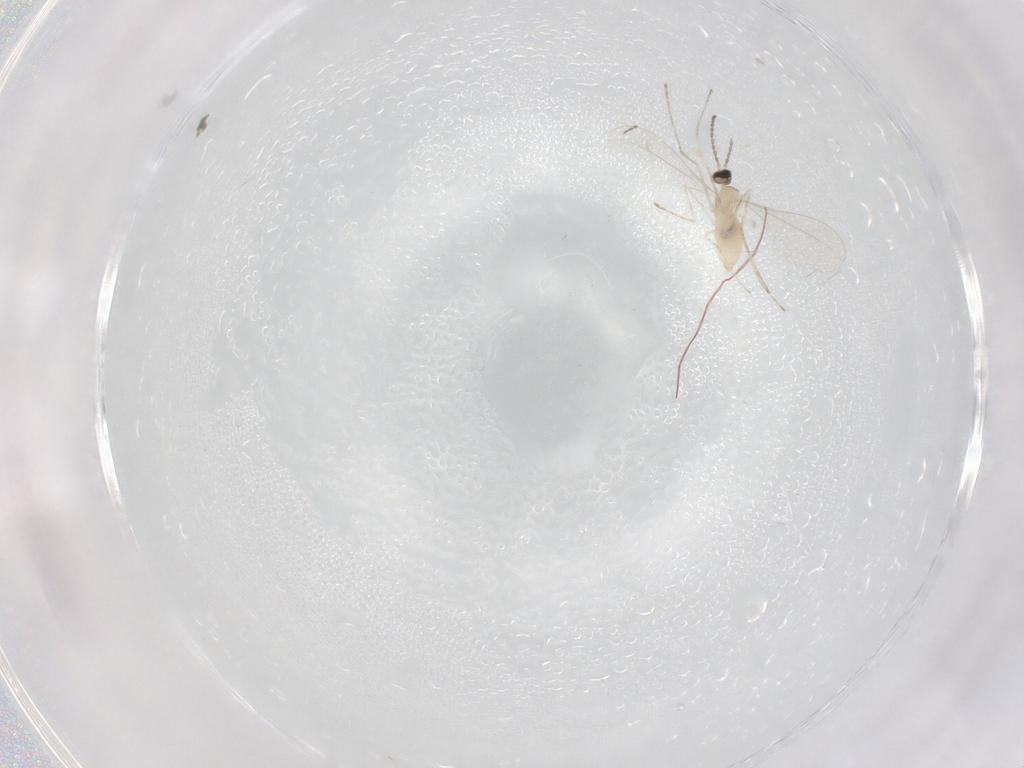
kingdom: Animalia
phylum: Arthropoda
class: Insecta
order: Diptera
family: Cecidomyiidae
